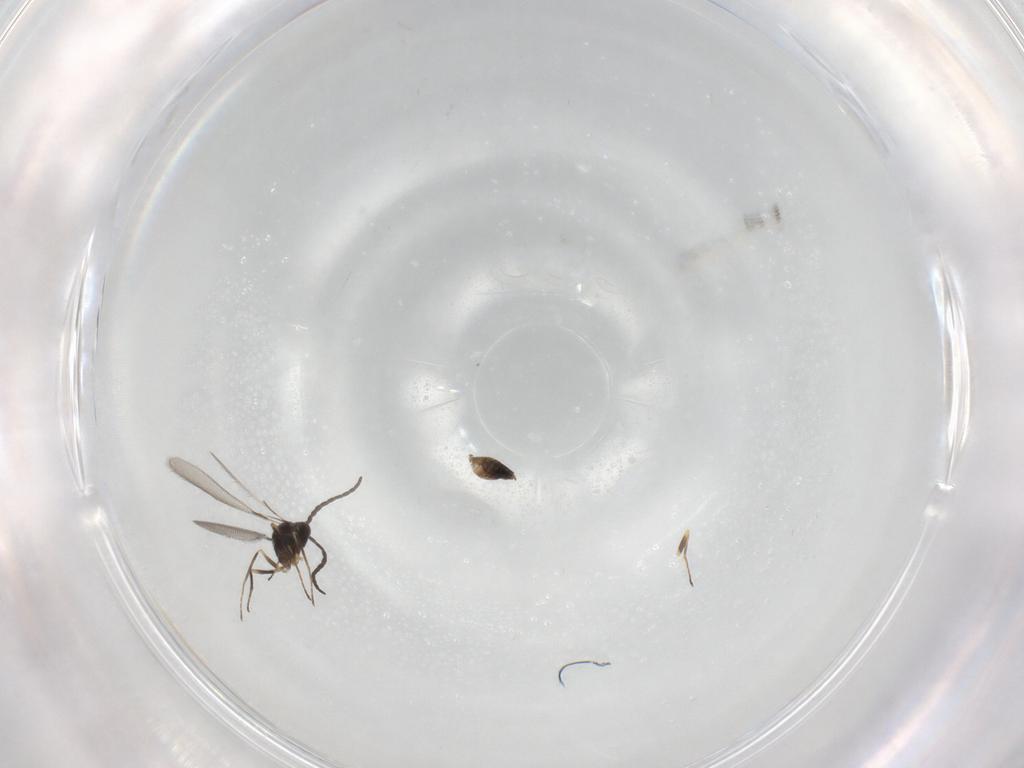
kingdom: Animalia
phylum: Arthropoda
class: Insecta
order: Hymenoptera
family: Mymaridae
